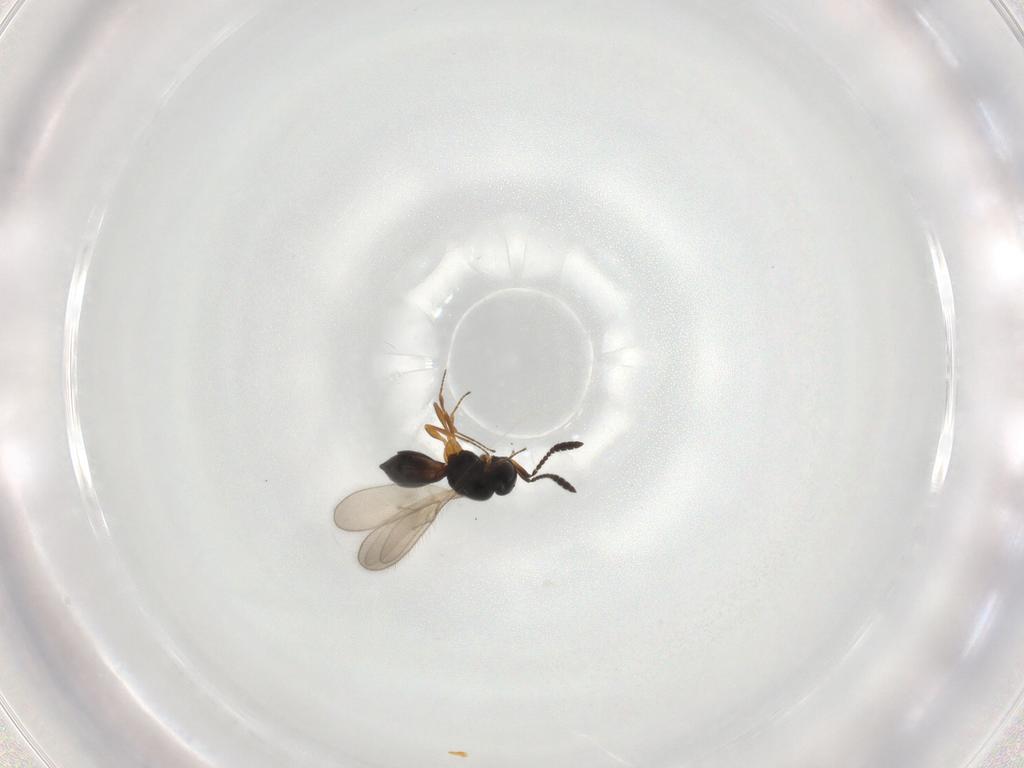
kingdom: Animalia
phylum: Arthropoda
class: Insecta
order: Hymenoptera
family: Scelionidae
